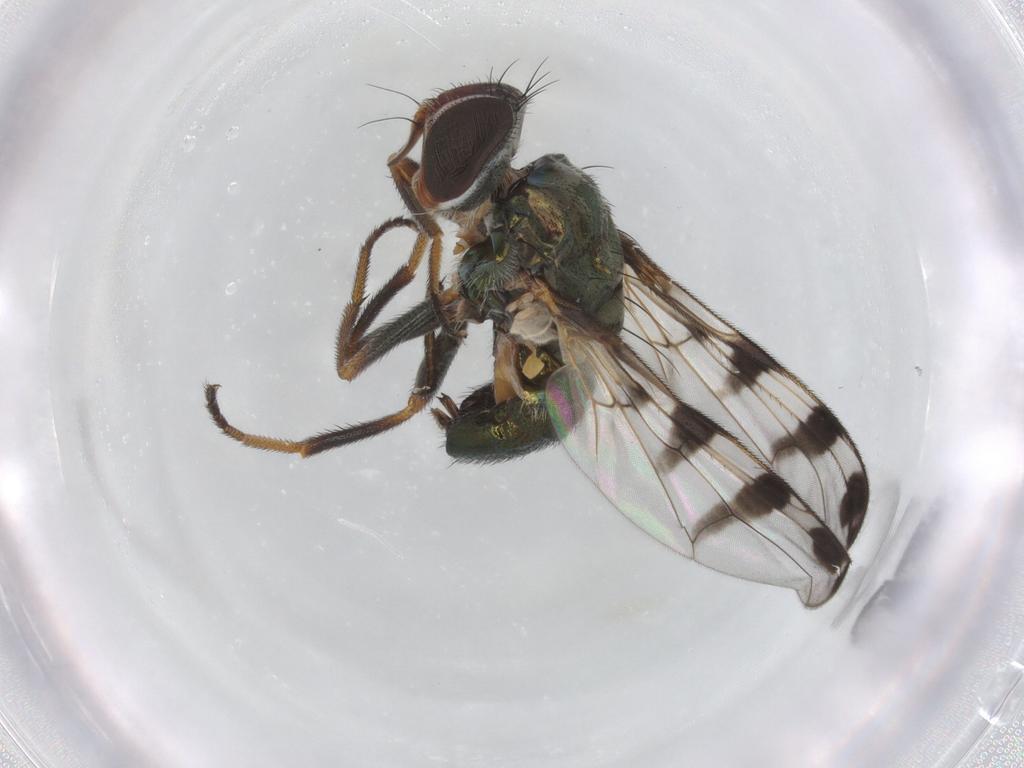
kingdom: Animalia
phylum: Arthropoda
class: Insecta
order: Diptera
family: Platystomatidae
